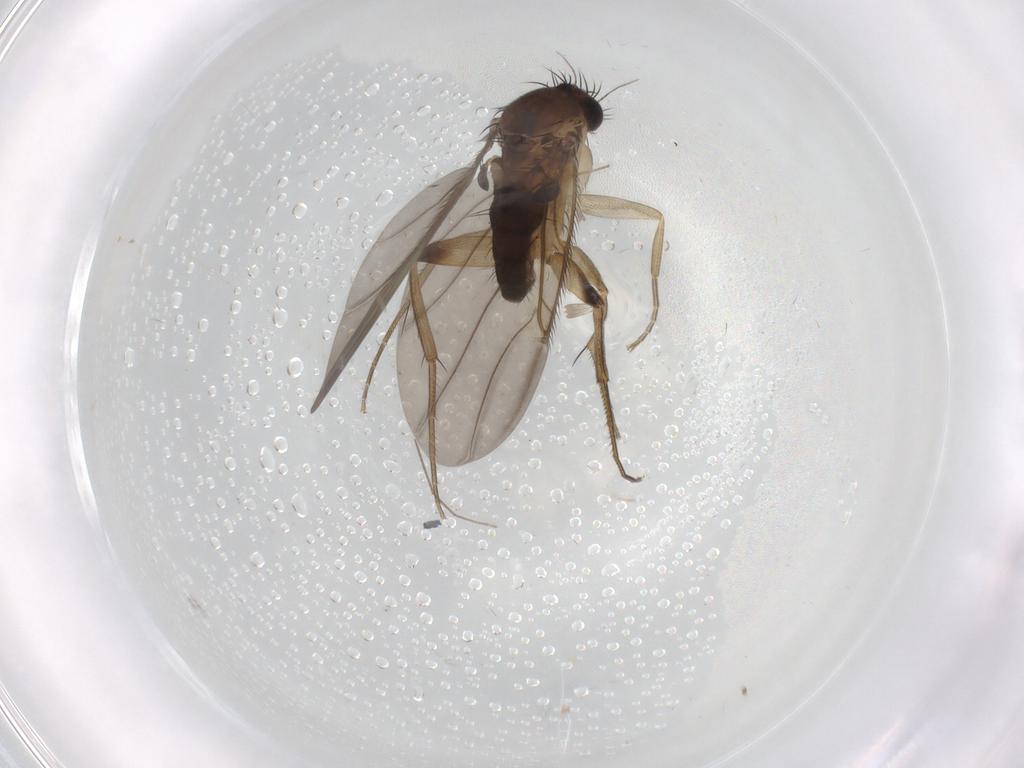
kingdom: Animalia
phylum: Arthropoda
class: Insecta
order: Diptera
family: Phoridae
